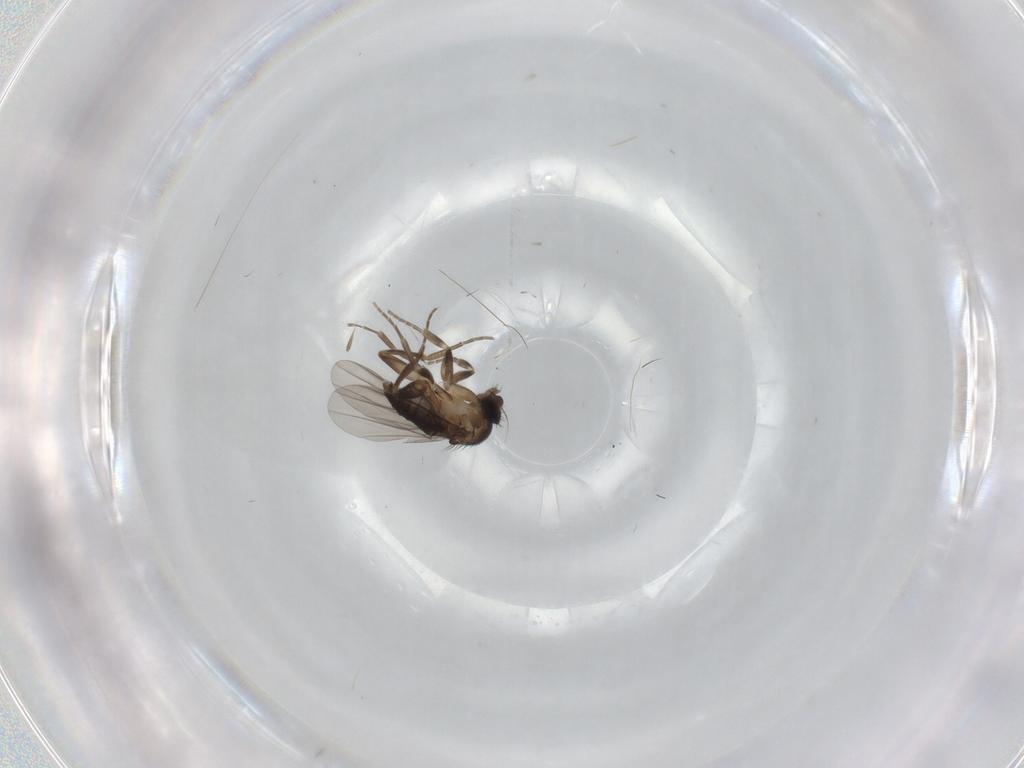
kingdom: Animalia
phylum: Arthropoda
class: Insecta
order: Diptera
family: Phoridae
